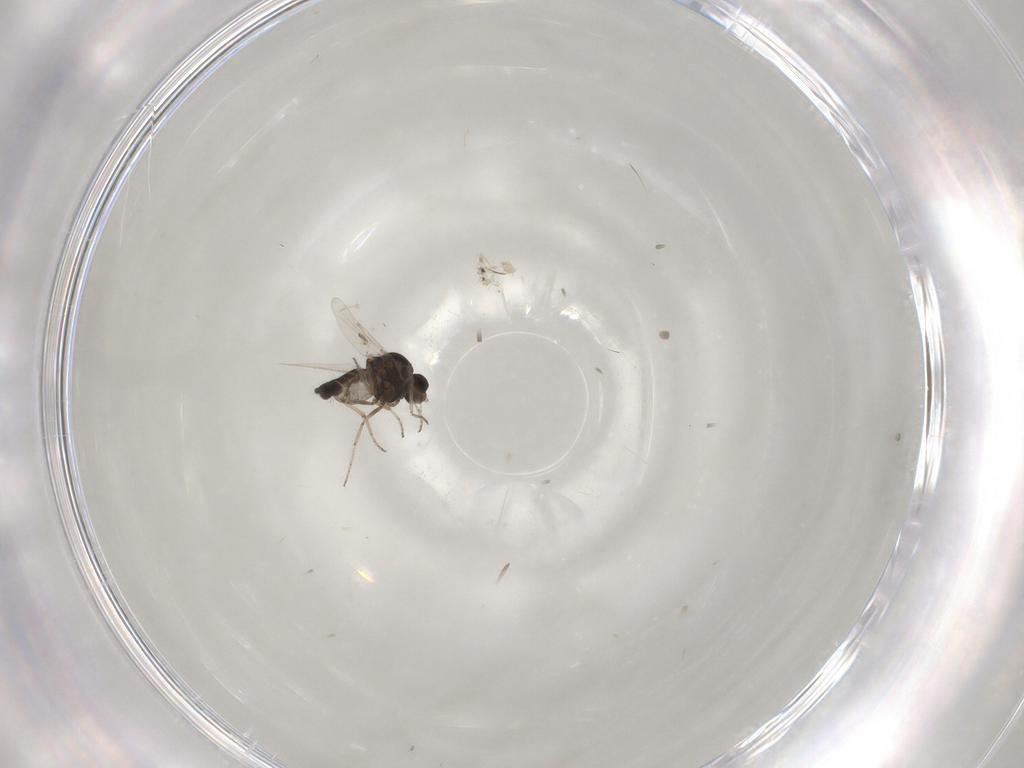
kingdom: Animalia
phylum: Arthropoda
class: Insecta
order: Diptera
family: Ceratopogonidae
